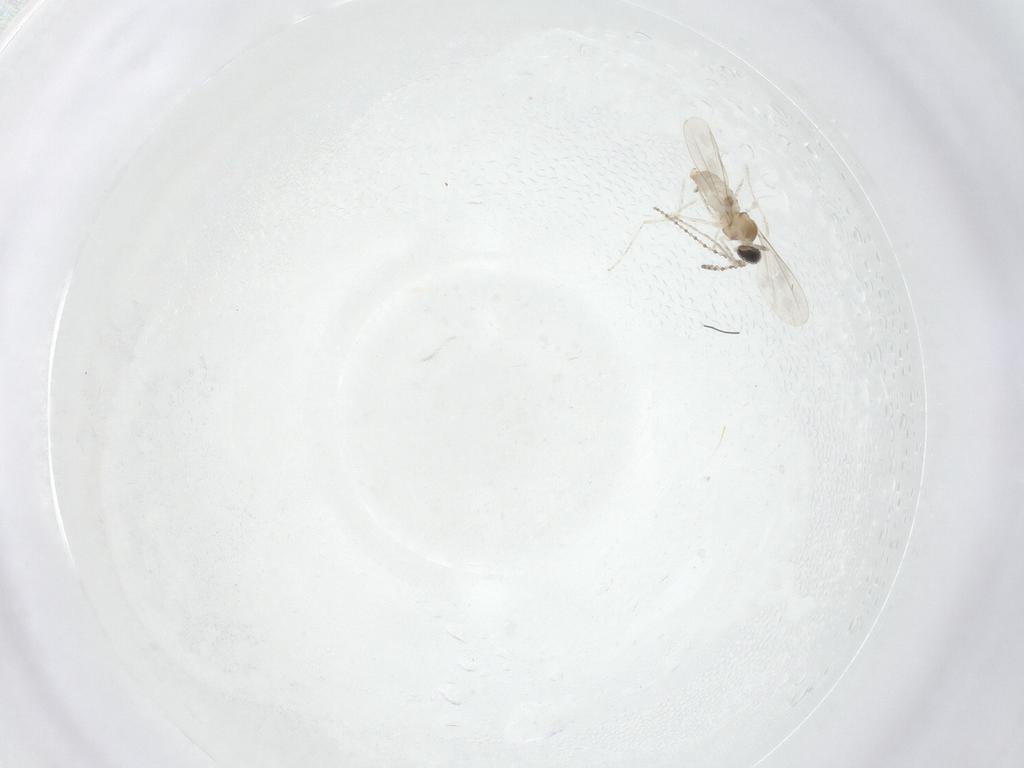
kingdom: Animalia
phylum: Arthropoda
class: Insecta
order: Diptera
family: Cecidomyiidae
